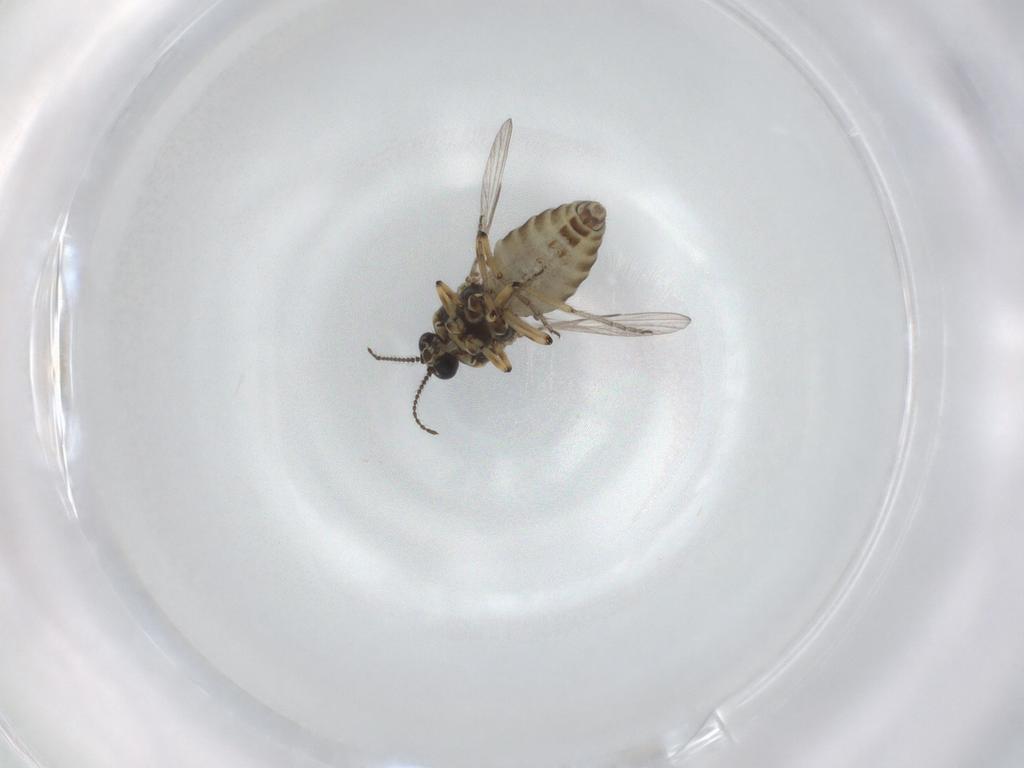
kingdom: Animalia
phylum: Arthropoda
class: Insecta
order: Diptera
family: Ceratopogonidae
